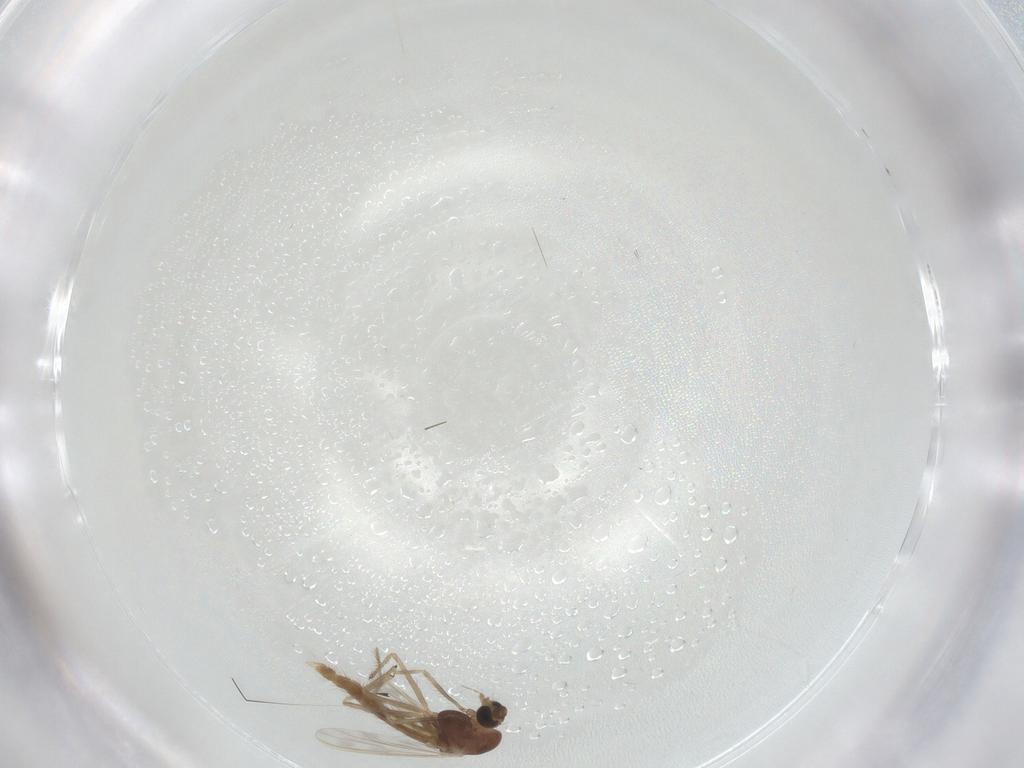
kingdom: Animalia
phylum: Arthropoda
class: Insecta
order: Diptera
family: Chironomidae
